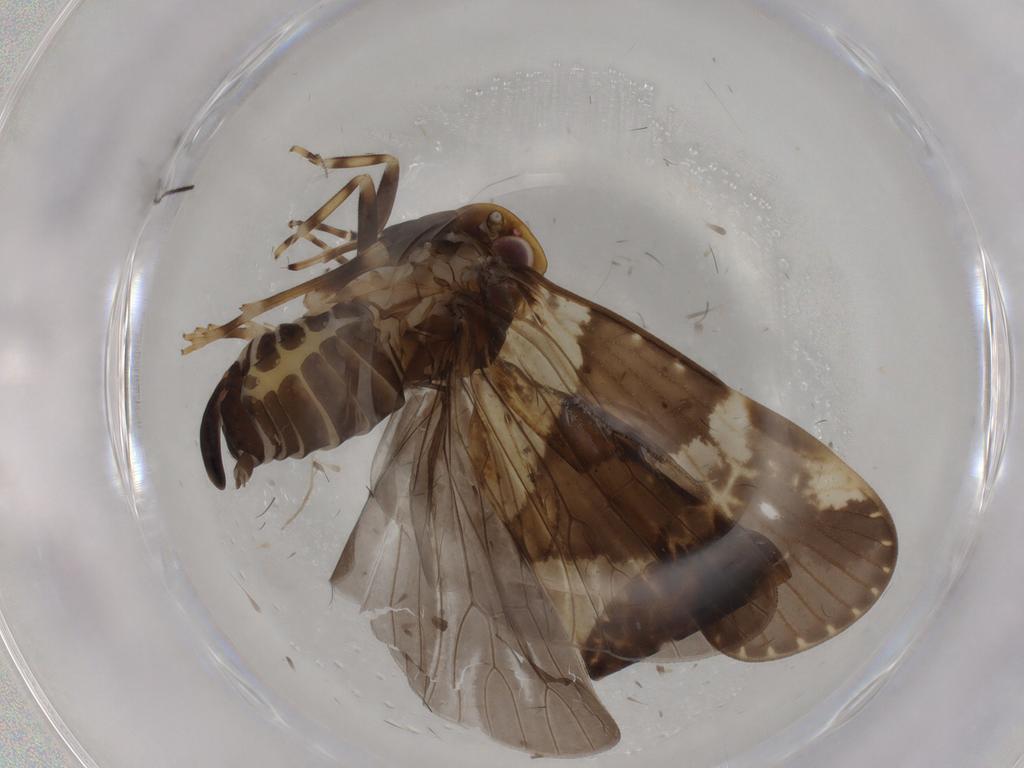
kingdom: Animalia
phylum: Arthropoda
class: Insecta
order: Hemiptera
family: Cixiidae
